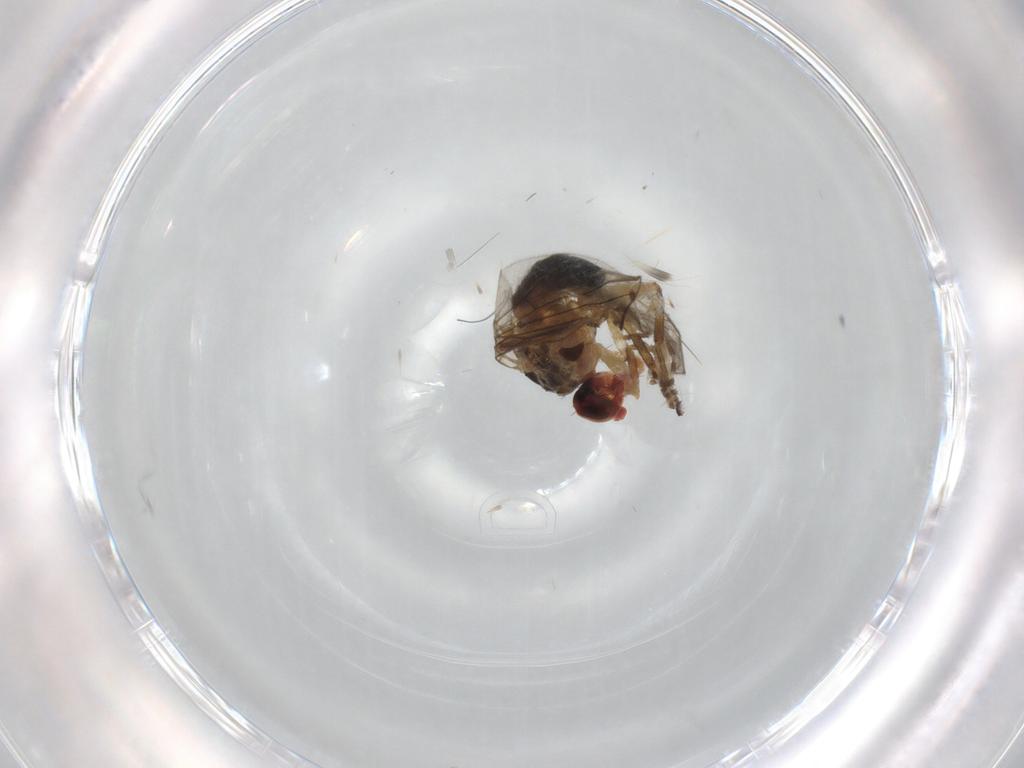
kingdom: Animalia
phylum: Arthropoda
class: Insecta
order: Diptera
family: Agromyzidae
